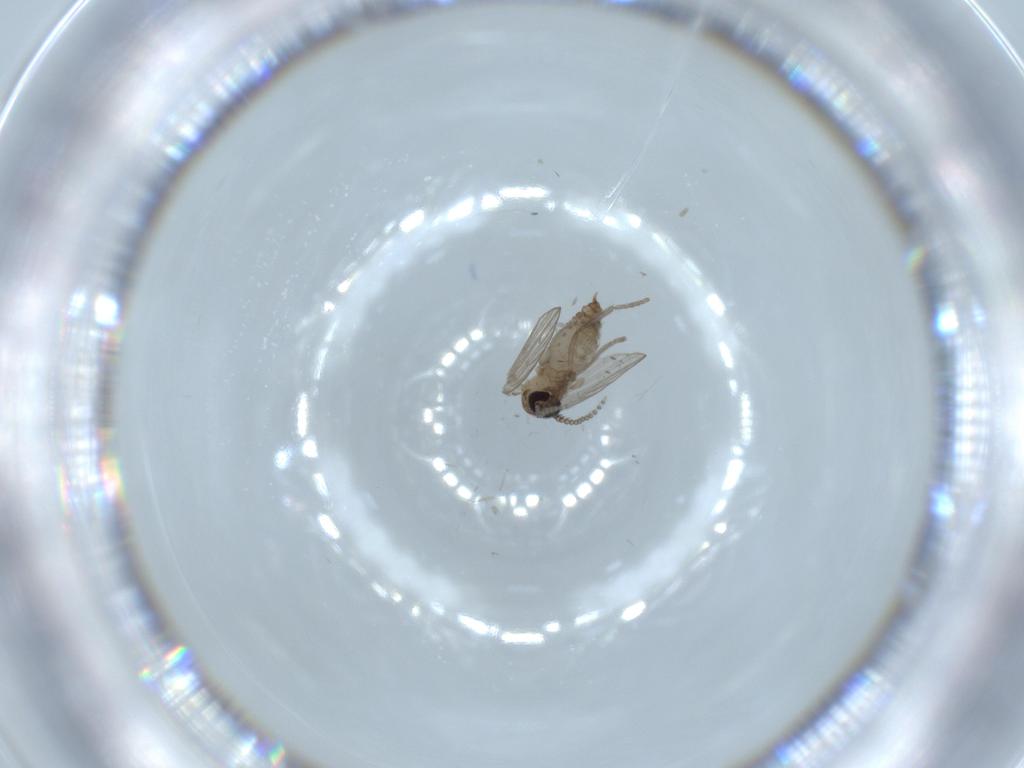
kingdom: Animalia
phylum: Arthropoda
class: Insecta
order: Diptera
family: Psychodidae
